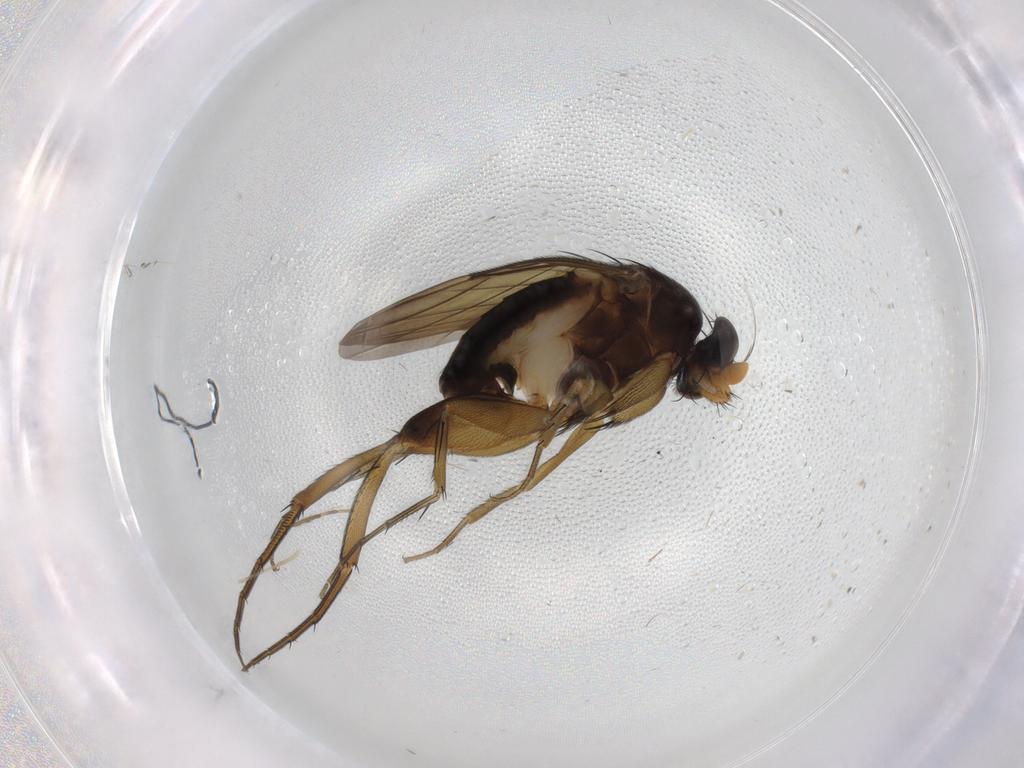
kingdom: Animalia
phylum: Arthropoda
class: Insecta
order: Diptera
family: Phoridae
